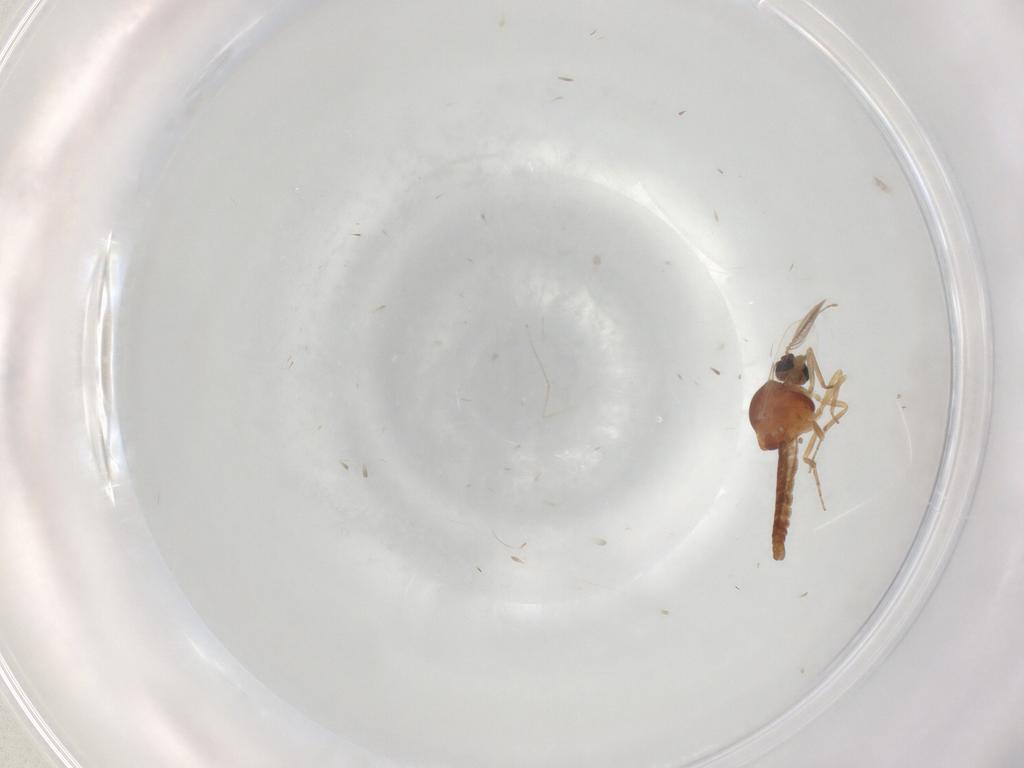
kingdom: Animalia
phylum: Arthropoda
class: Insecta
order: Diptera
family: Ceratopogonidae
